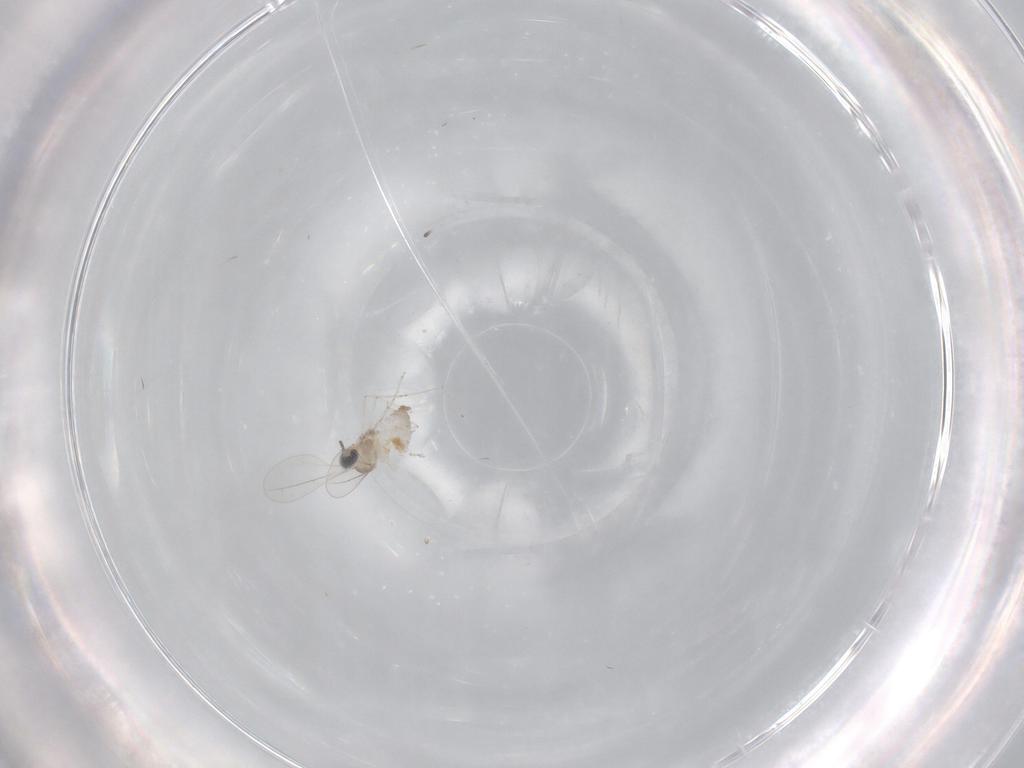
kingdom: Animalia
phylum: Arthropoda
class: Insecta
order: Diptera
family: Cecidomyiidae
